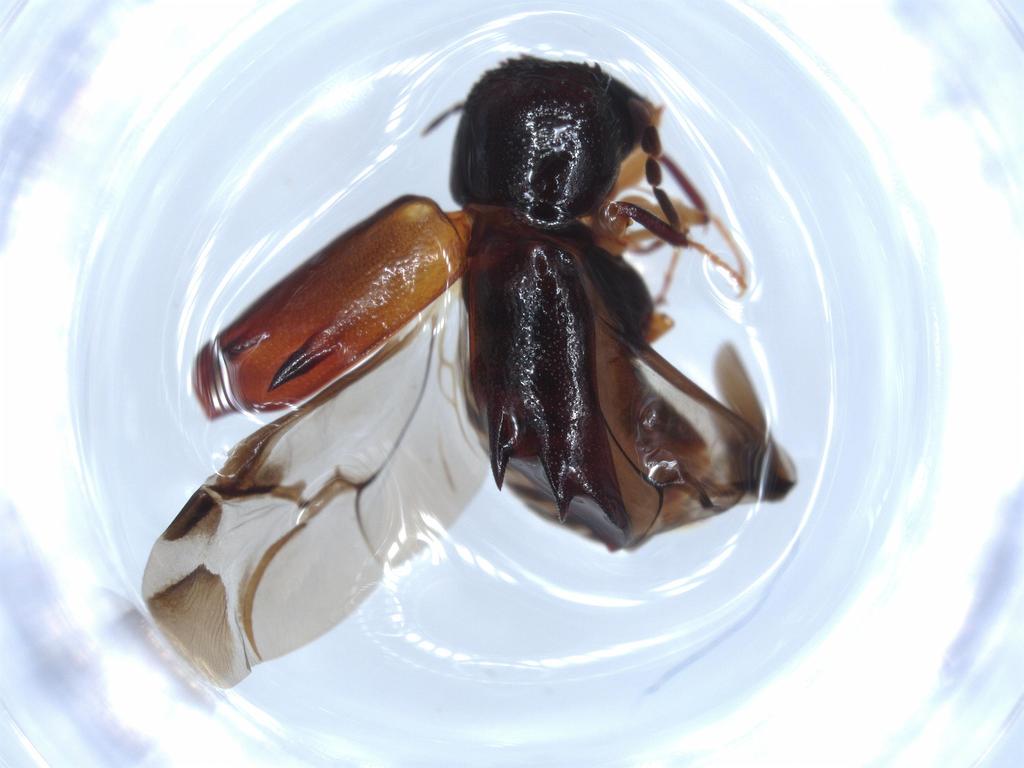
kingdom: Animalia
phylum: Arthropoda
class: Insecta
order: Coleoptera
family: Bostrichidae
